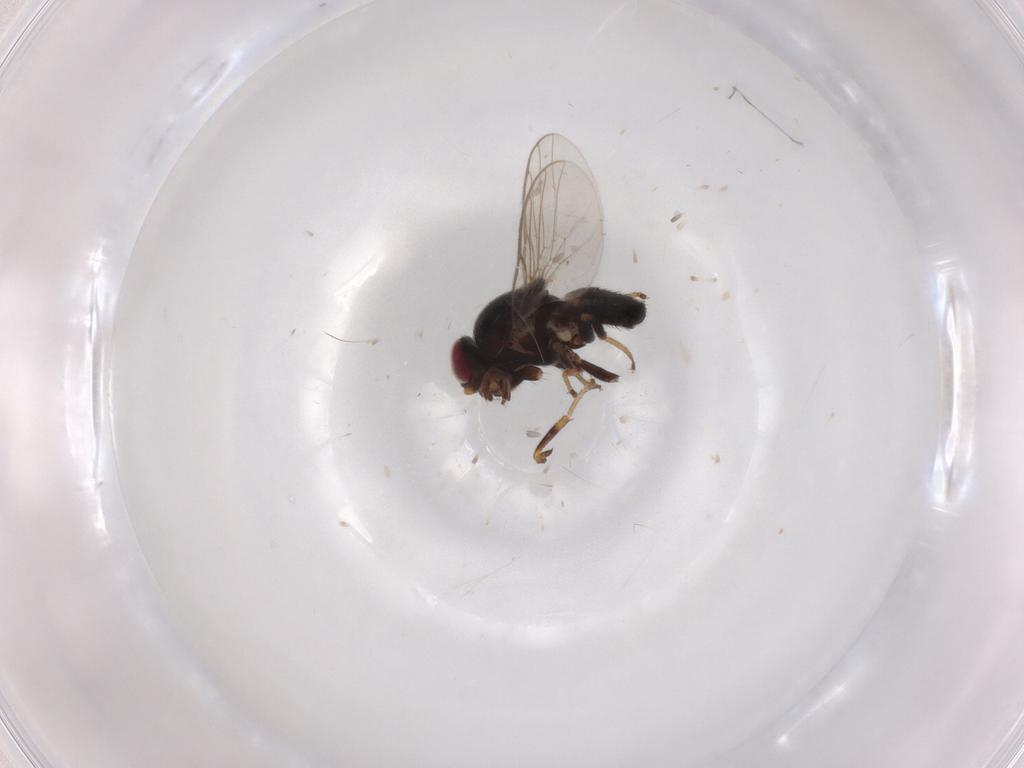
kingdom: Animalia
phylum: Arthropoda
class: Insecta
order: Diptera
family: Chloropidae
